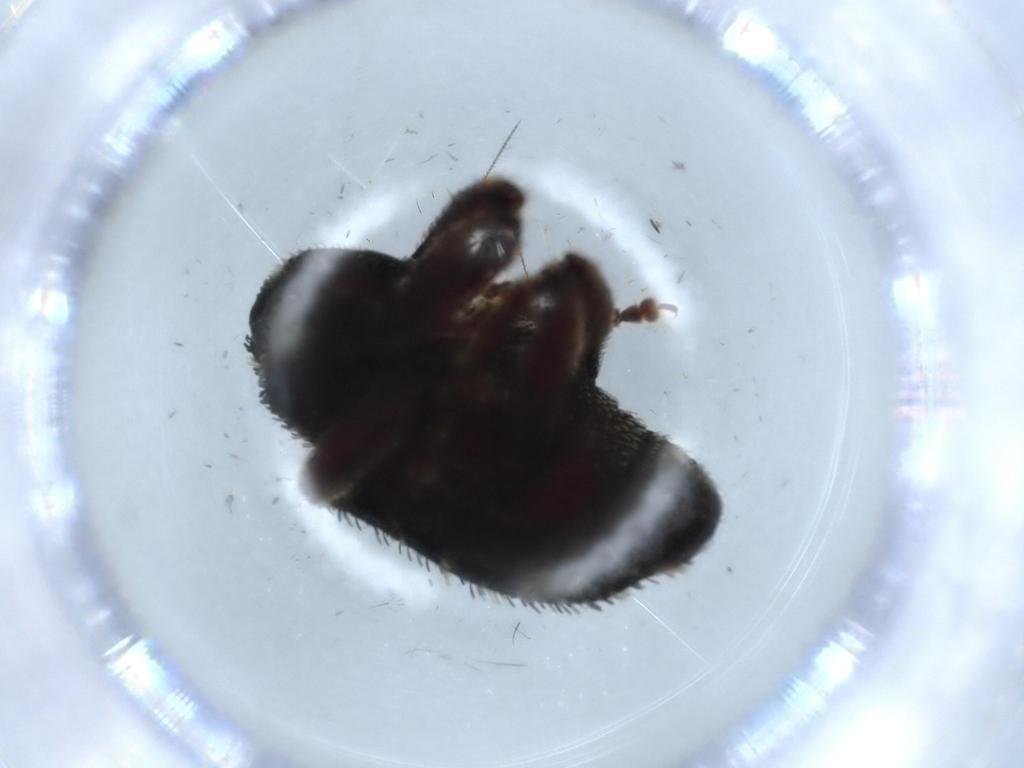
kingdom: Animalia
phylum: Arthropoda
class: Insecta
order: Coleoptera
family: Curculionidae
